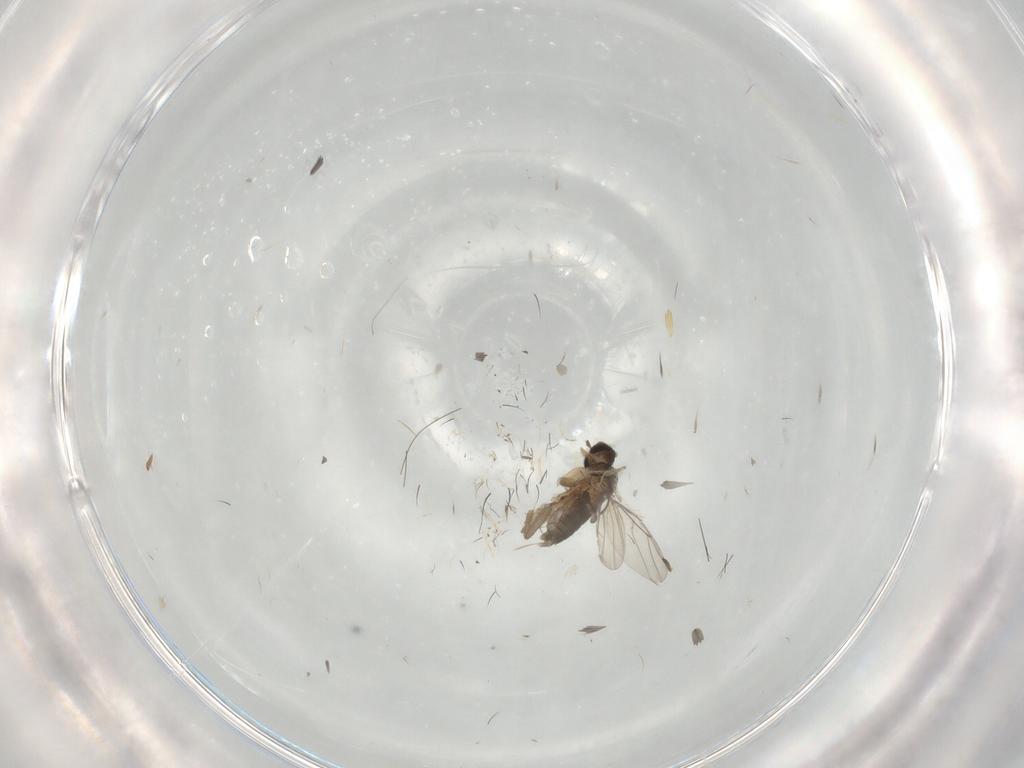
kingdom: Animalia
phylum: Arthropoda
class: Insecta
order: Diptera
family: Phoridae
